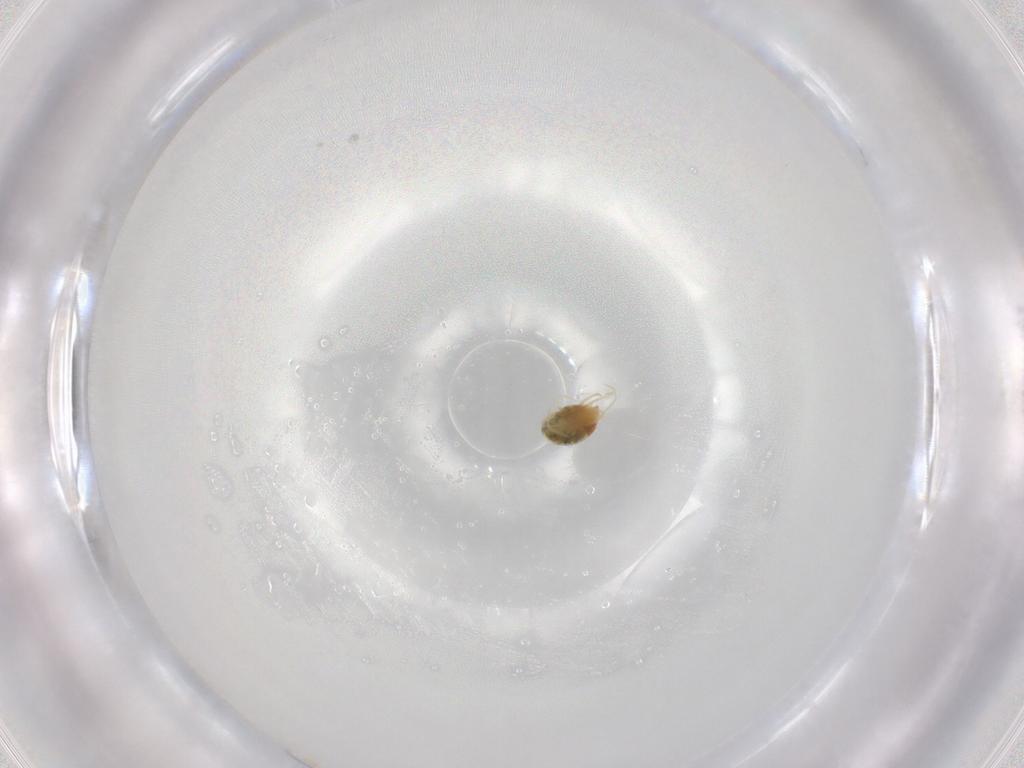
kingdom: Animalia
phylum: Arthropoda
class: Arachnida
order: Trombidiformes
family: Tetranychidae
